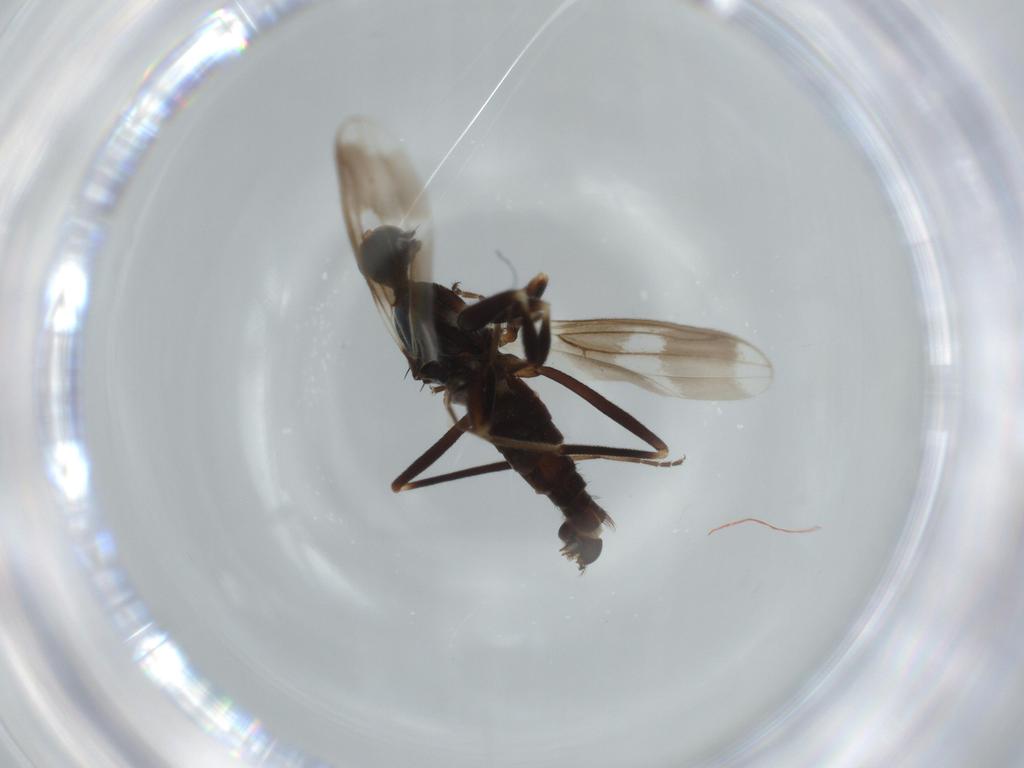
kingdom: Animalia
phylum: Arthropoda
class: Insecta
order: Diptera
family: Hybotidae
